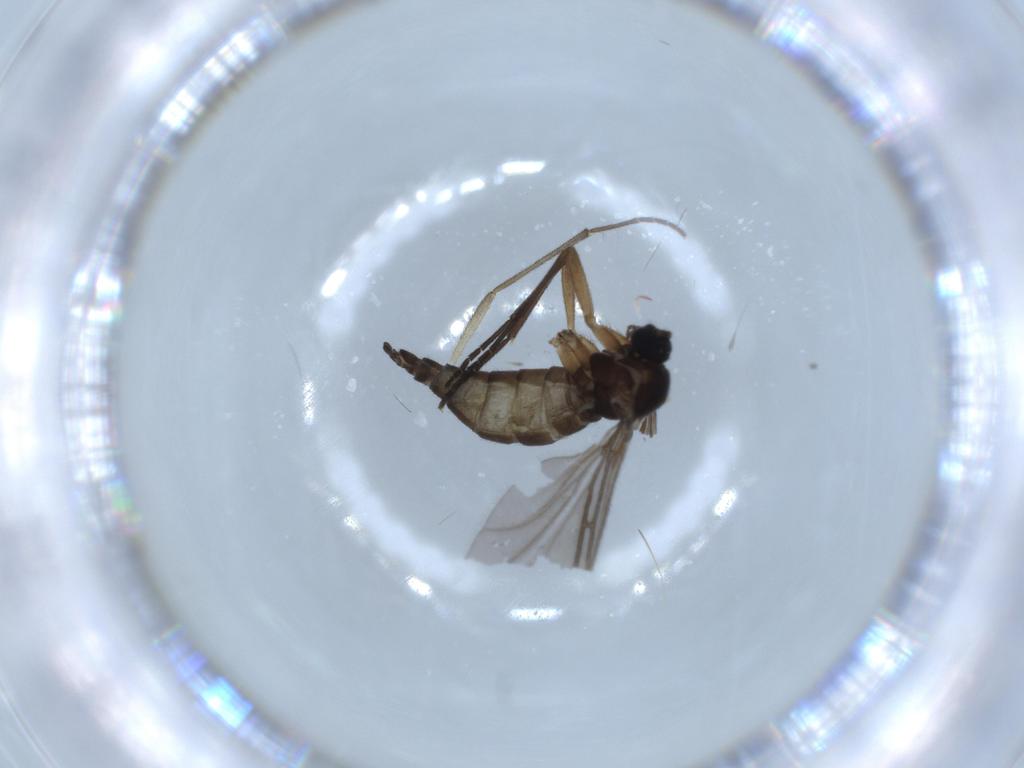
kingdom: Animalia
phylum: Arthropoda
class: Insecta
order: Diptera
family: Sciaridae
